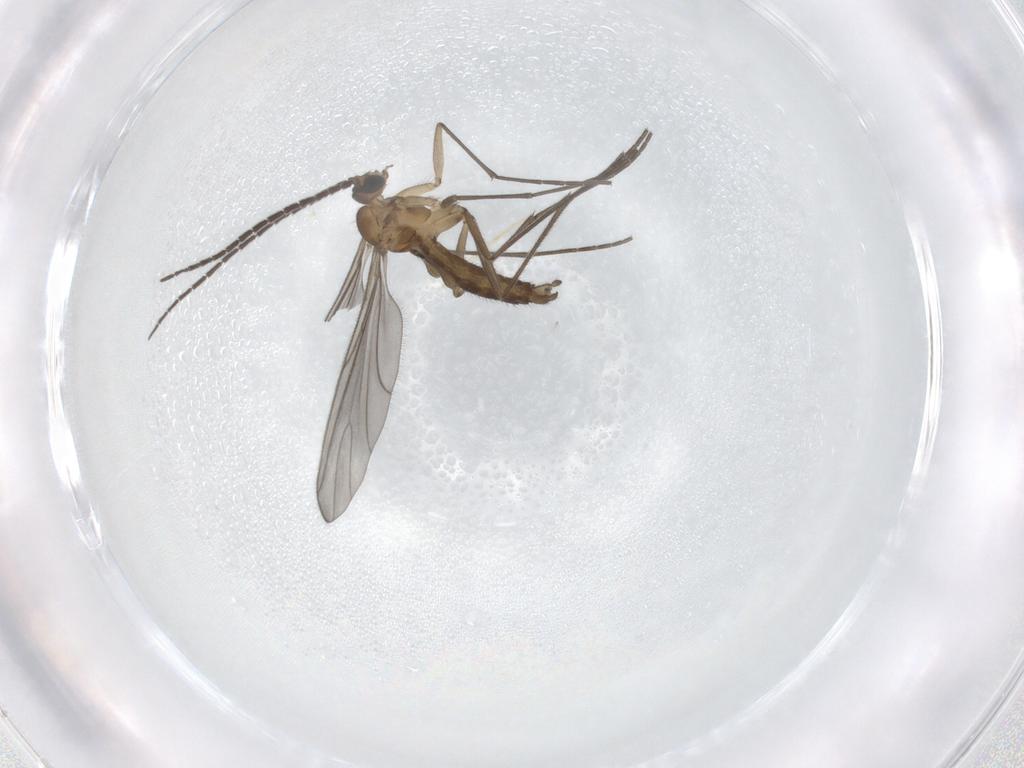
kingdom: Animalia
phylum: Arthropoda
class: Insecta
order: Diptera
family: Sciaridae
